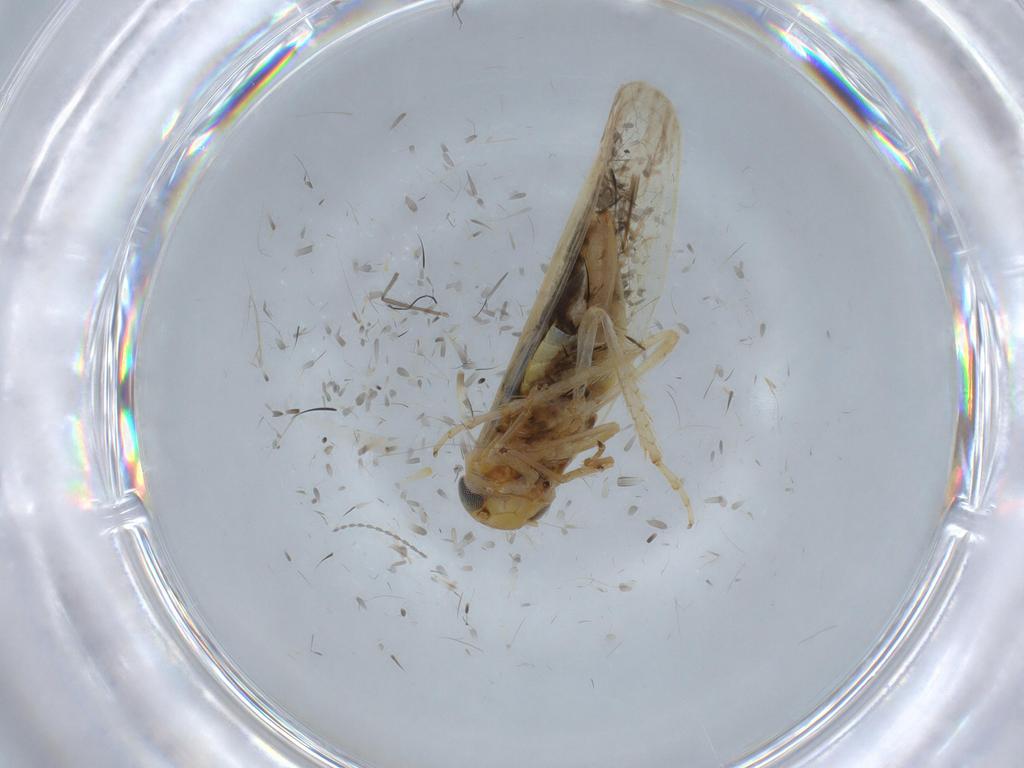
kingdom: Animalia
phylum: Arthropoda
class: Insecta
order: Hemiptera
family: Cicadellidae
